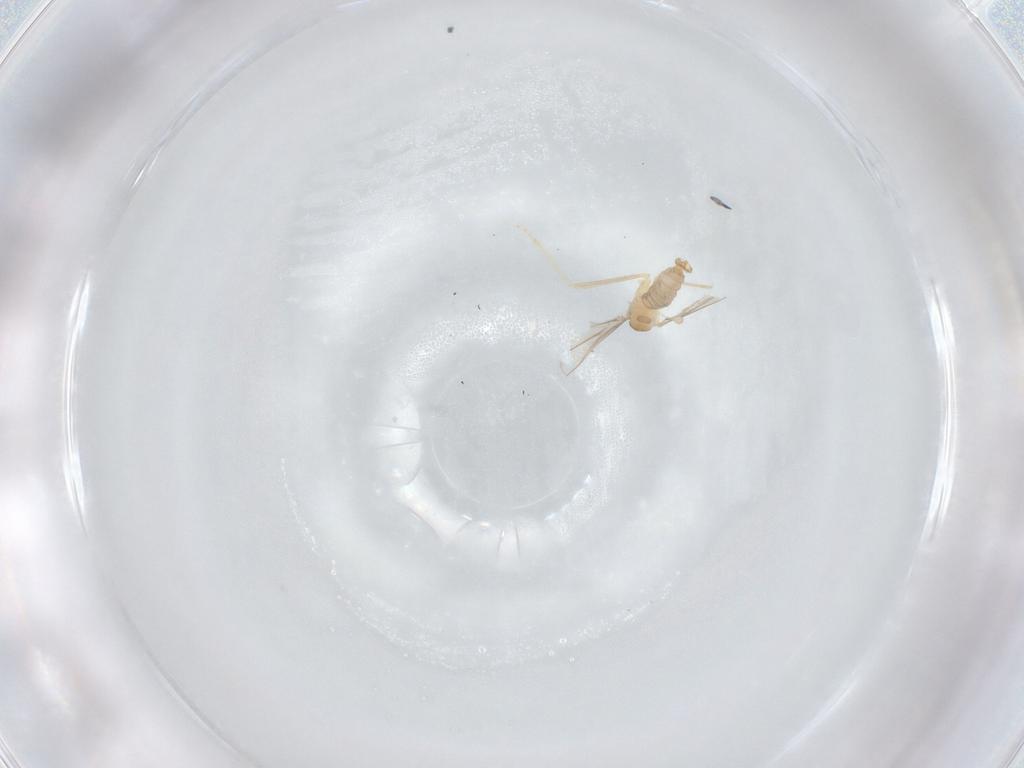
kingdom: Animalia
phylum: Arthropoda
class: Insecta
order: Diptera
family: Cecidomyiidae
